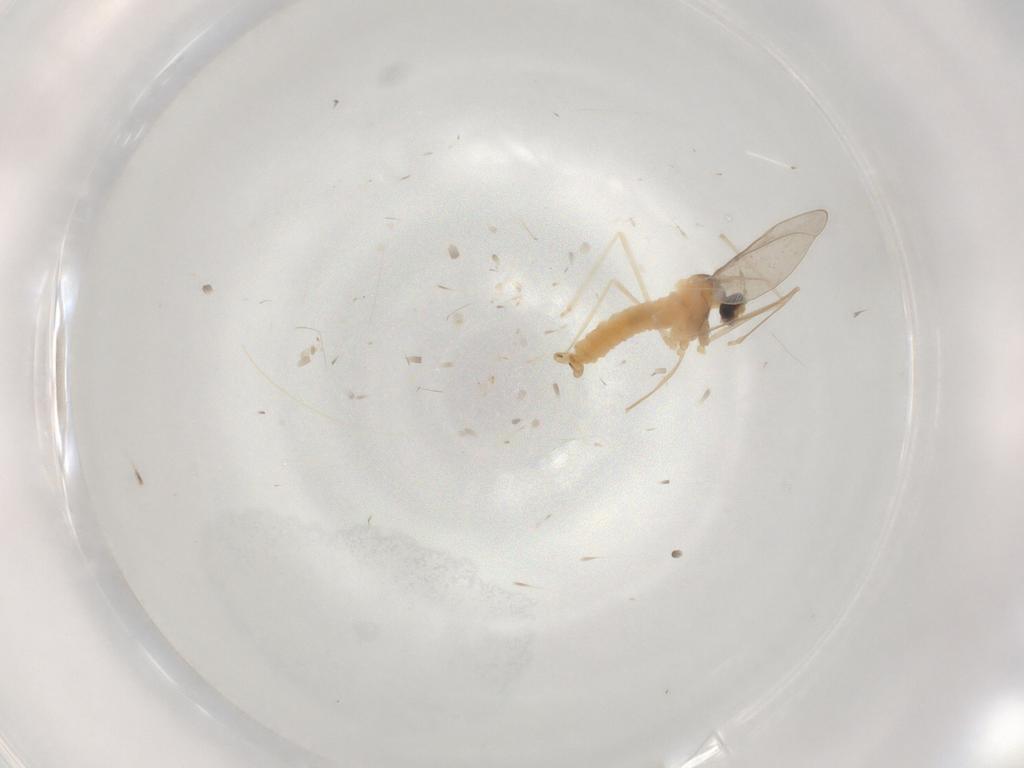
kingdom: Animalia
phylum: Arthropoda
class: Insecta
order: Diptera
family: Cecidomyiidae
